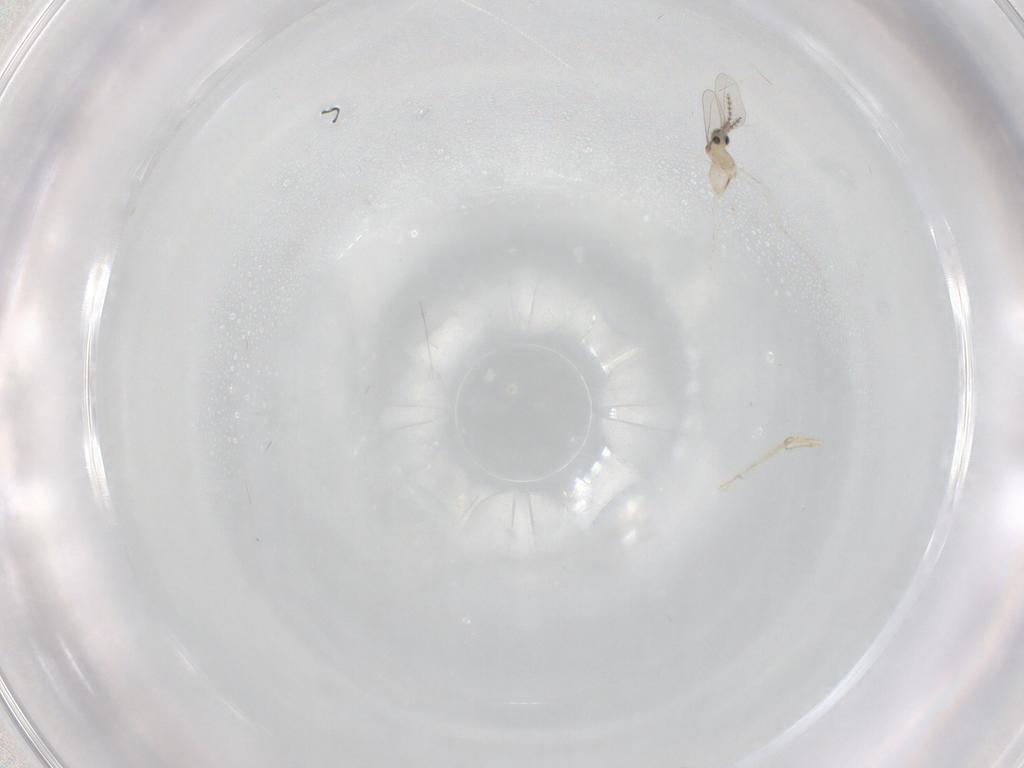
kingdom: Animalia
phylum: Arthropoda
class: Insecta
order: Diptera
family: Cecidomyiidae
